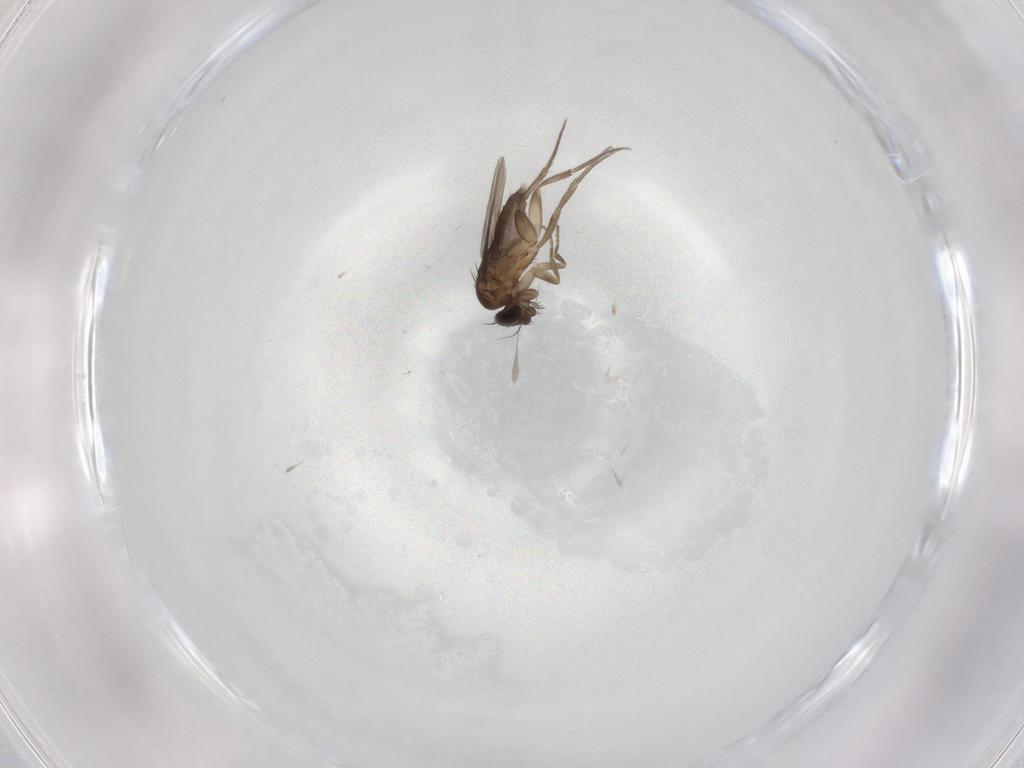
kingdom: Animalia
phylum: Arthropoda
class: Insecta
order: Diptera
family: Phoridae
